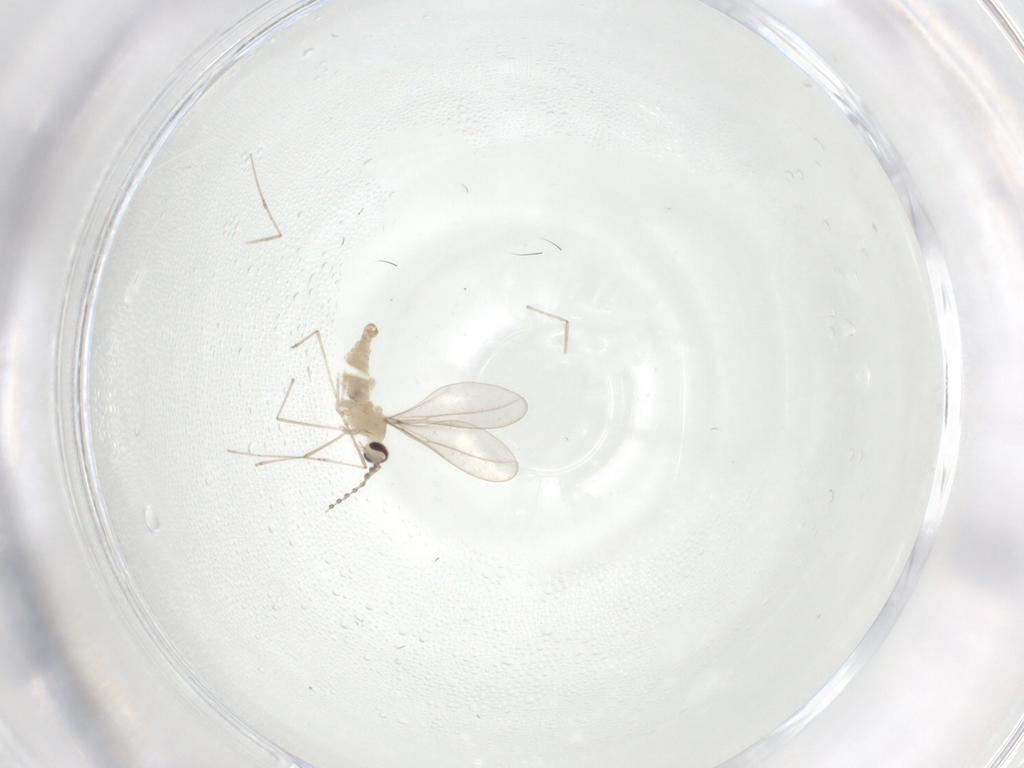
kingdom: Animalia
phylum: Arthropoda
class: Insecta
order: Diptera
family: Cecidomyiidae
